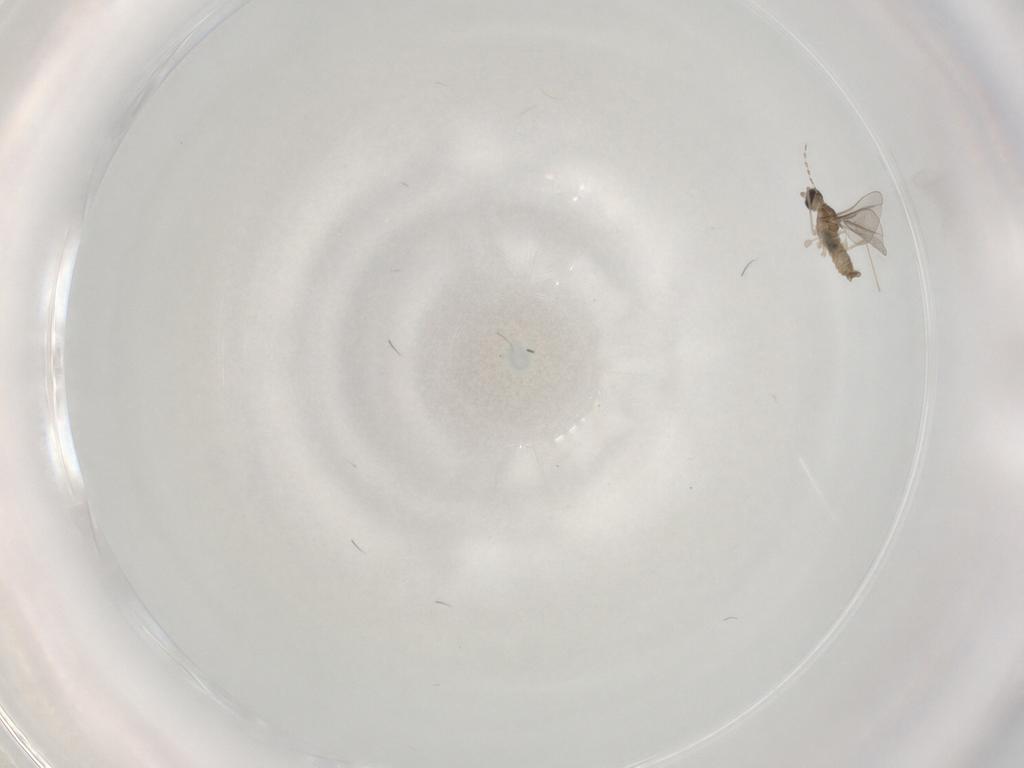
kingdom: Animalia
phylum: Arthropoda
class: Insecta
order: Diptera
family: Cecidomyiidae
